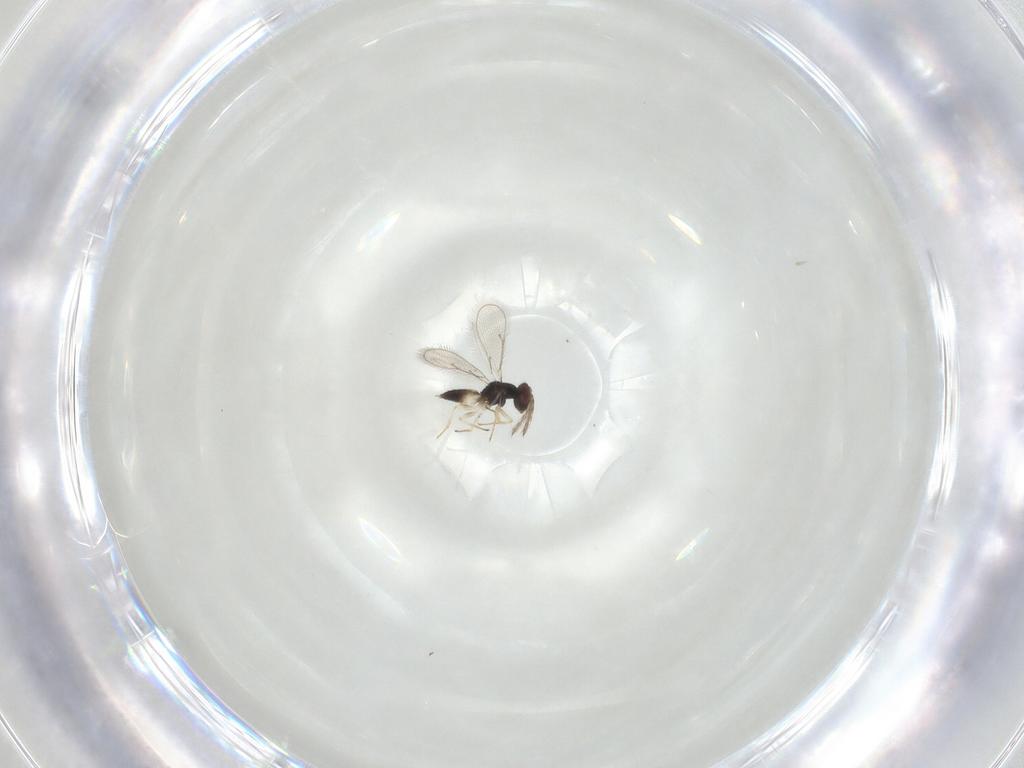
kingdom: Animalia
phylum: Arthropoda
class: Insecta
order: Hymenoptera
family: Eulophidae
